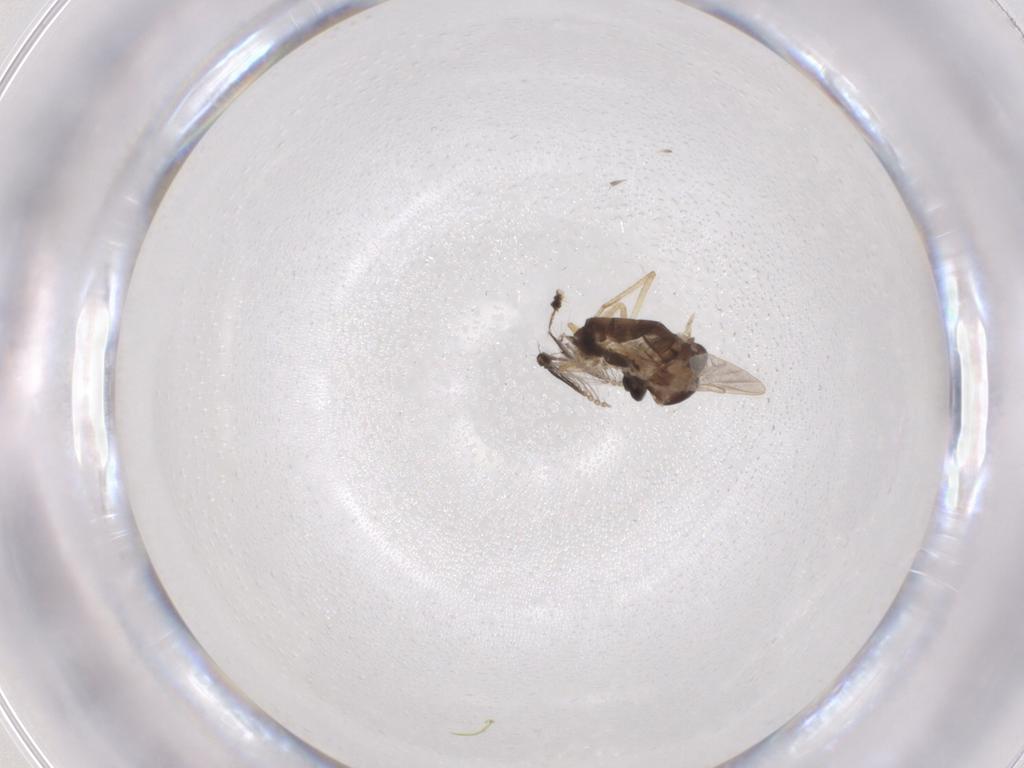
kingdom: Animalia
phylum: Arthropoda
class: Insecta
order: Diptera
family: Ceratopogonidae
